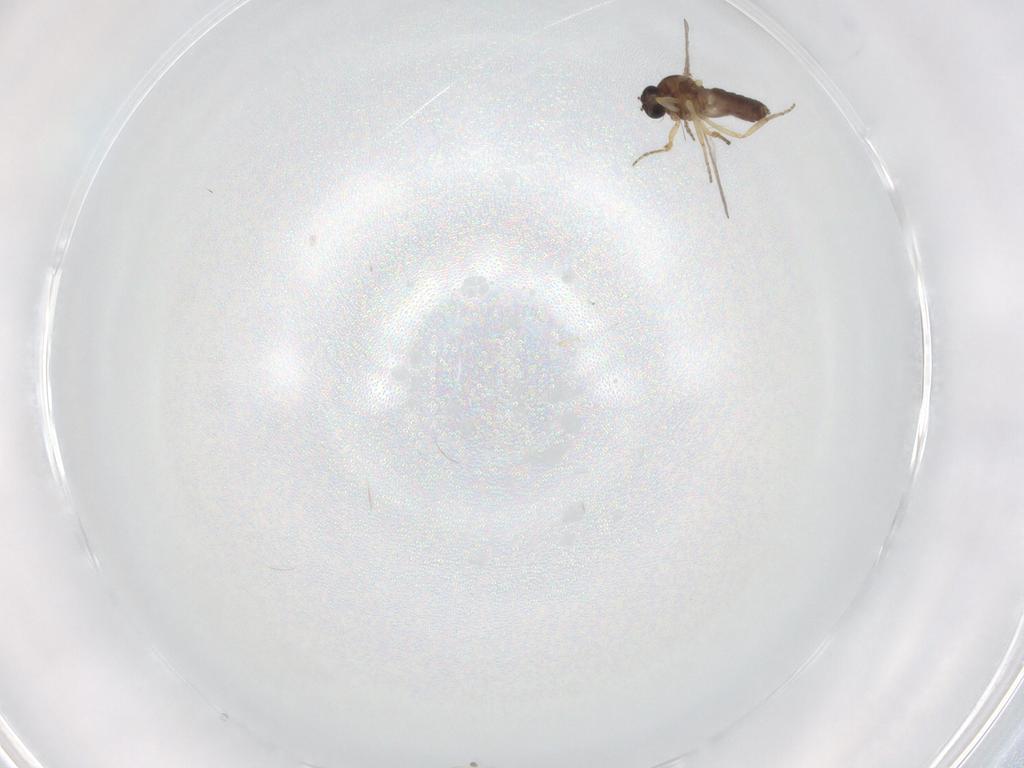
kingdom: Animalia
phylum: Arthropoda
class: Insecta
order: Diptera
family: Ceratopogonidae
